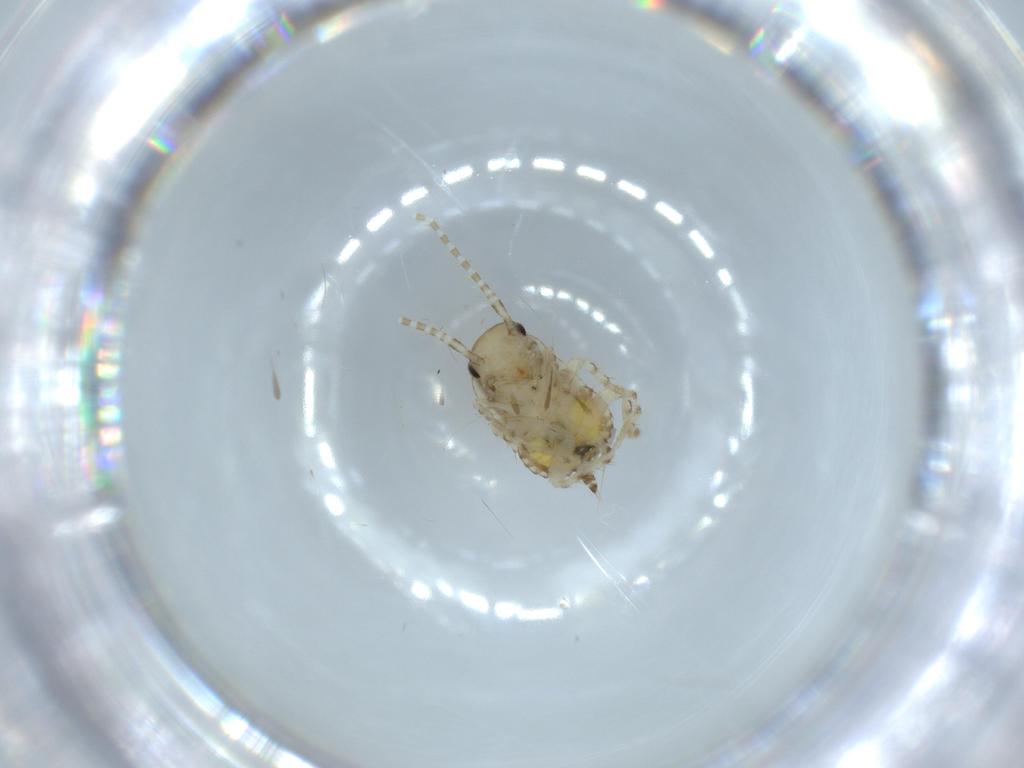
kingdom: Animalia
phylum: Arthropoda
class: Insecta
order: Blattodea
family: Ectobiidae
